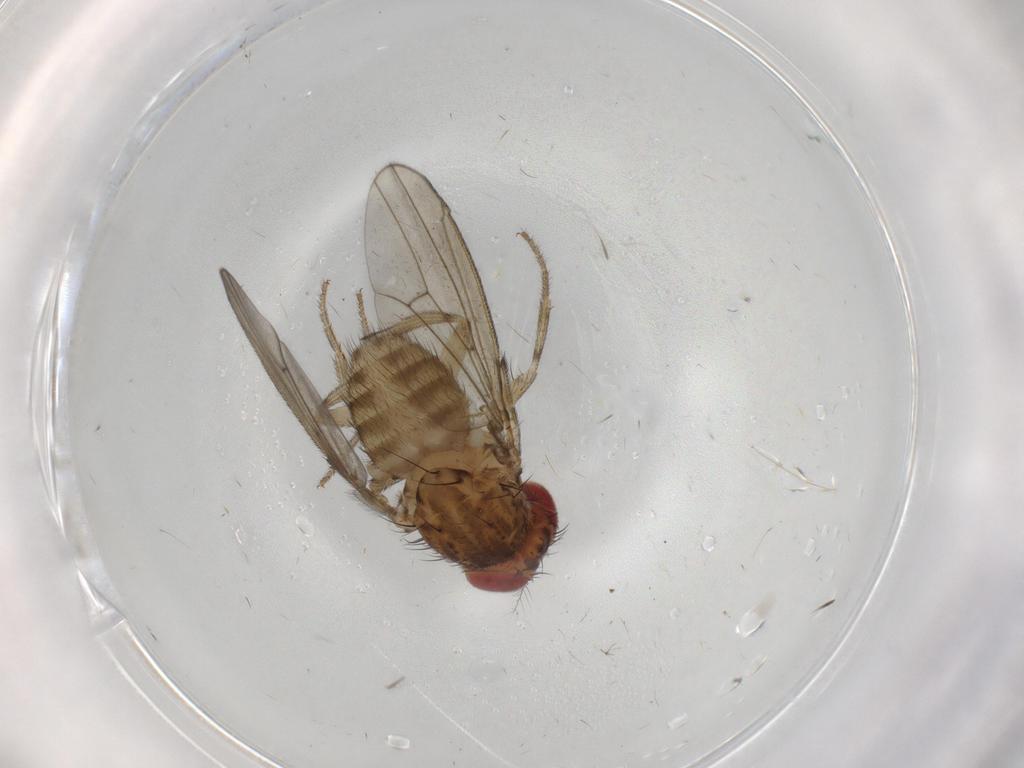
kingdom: Animalia
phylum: Arthropoda
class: Insecta
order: Diptera
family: Drosophilidae
